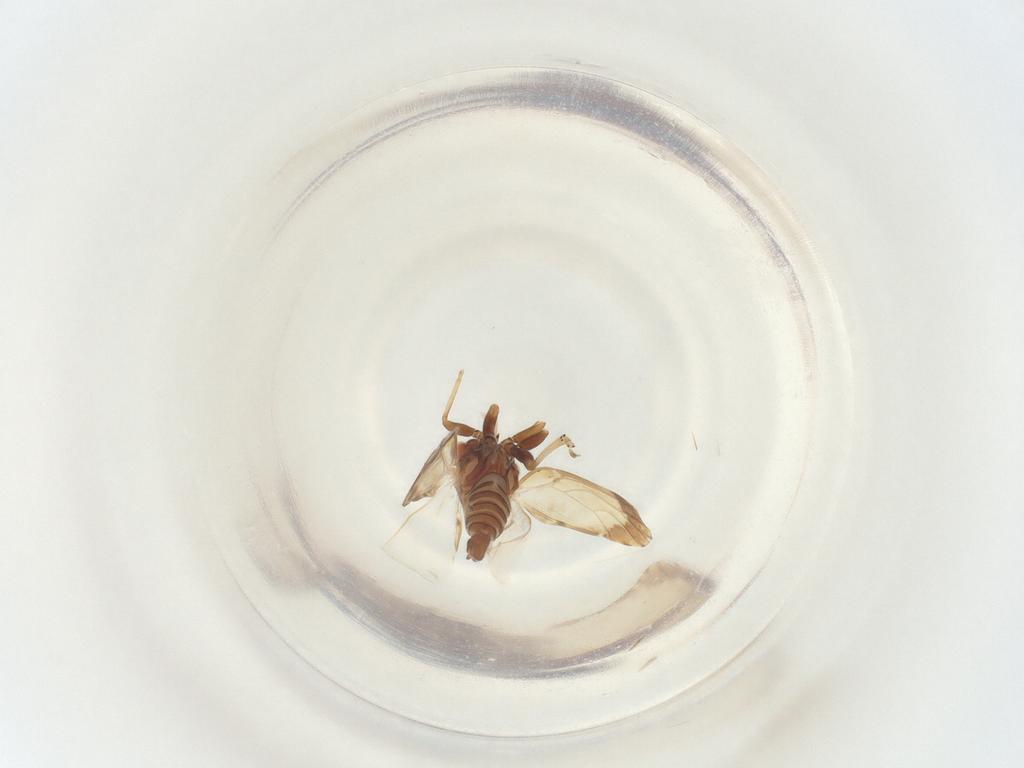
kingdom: Animalia
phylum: Arthropoda
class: Insecta
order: Hemiptera
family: Psyllidae
